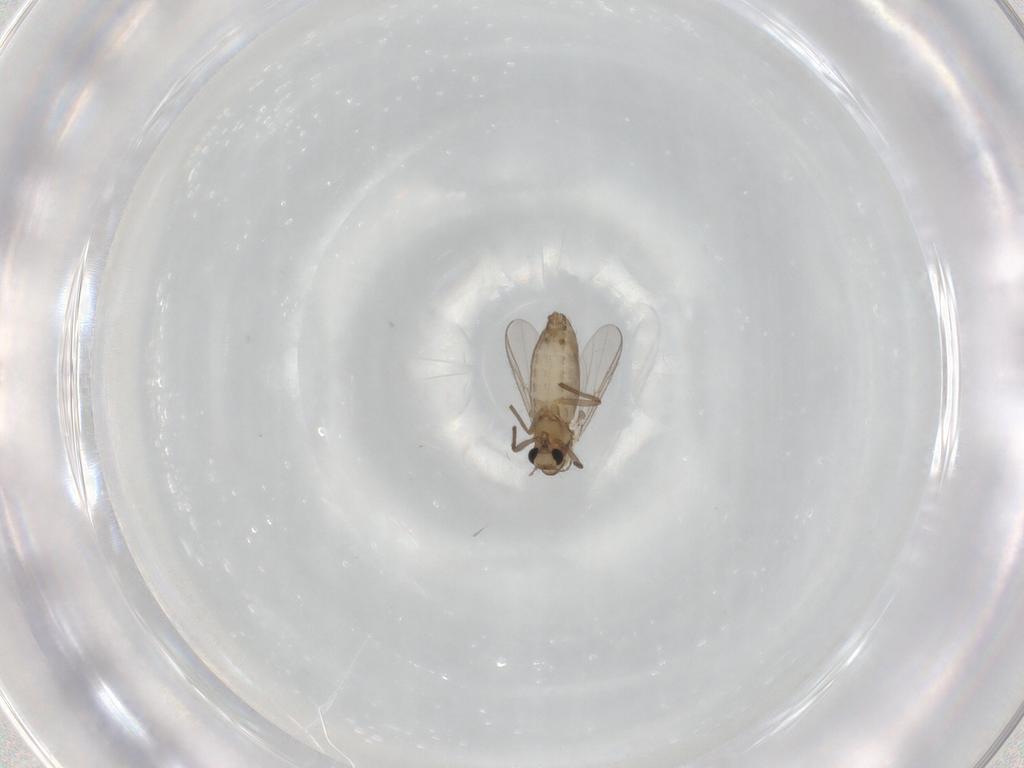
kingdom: Animalia
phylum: Arthropoda
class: Insecta
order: Diptera
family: Chironomidae
